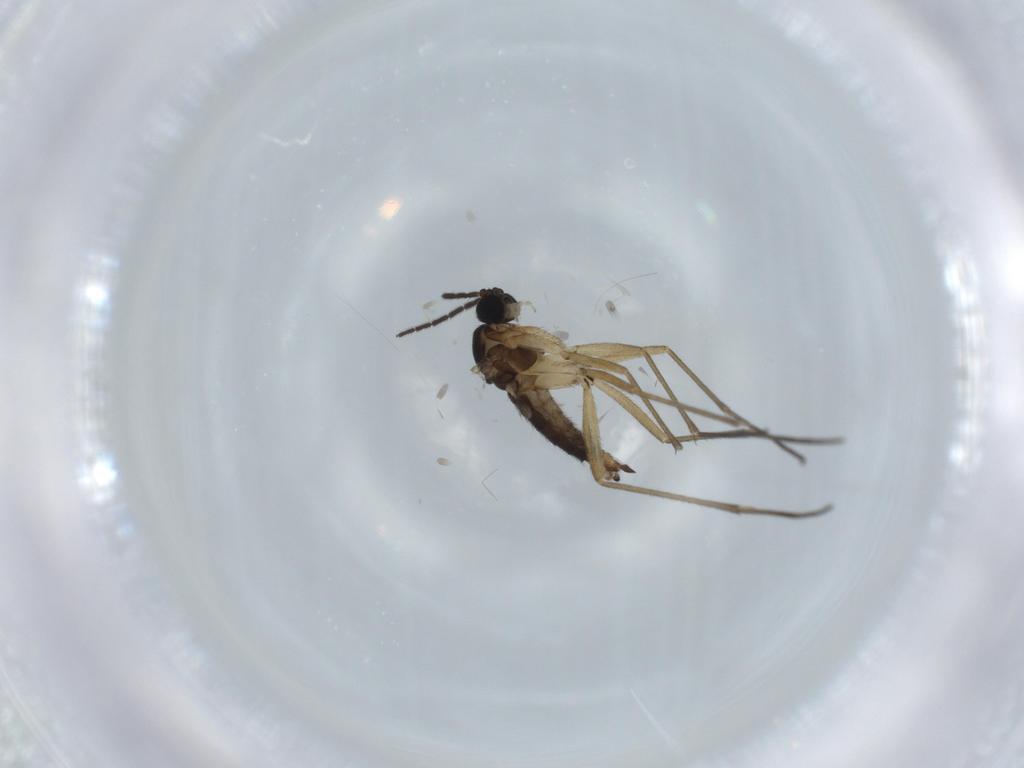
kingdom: Animalia
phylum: Arthropoda
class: Insecta
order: Diptera
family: Sciaridae
